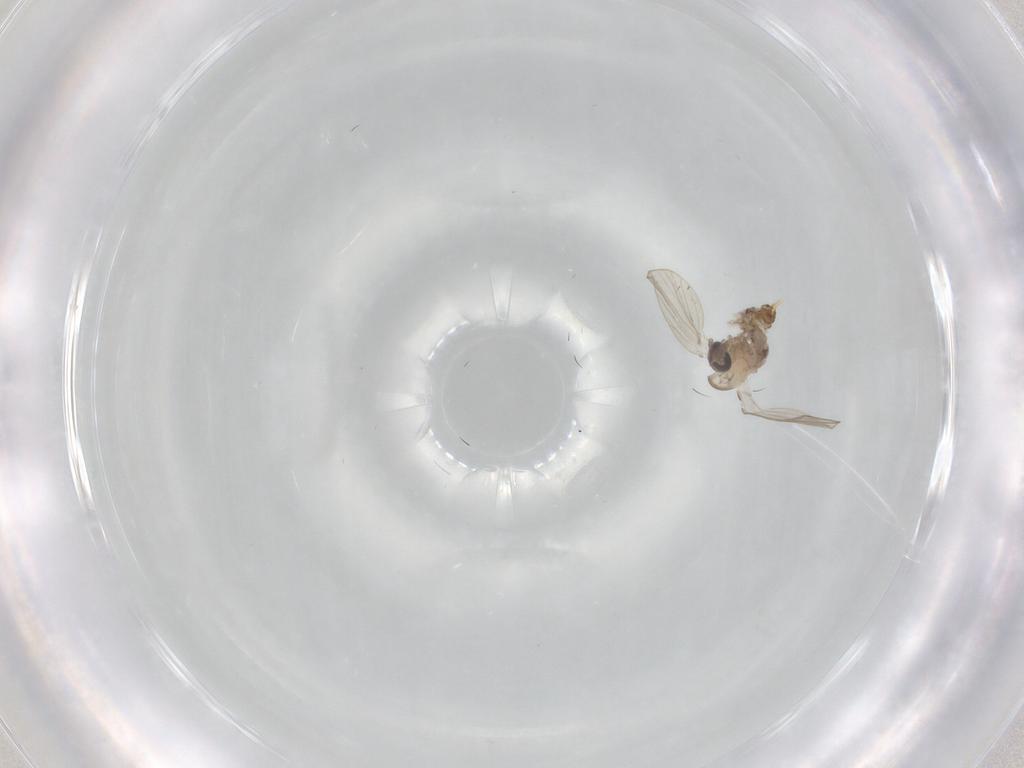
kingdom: Animalia
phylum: Arthropoda
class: Insecta
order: Diptera
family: Psychodidae
